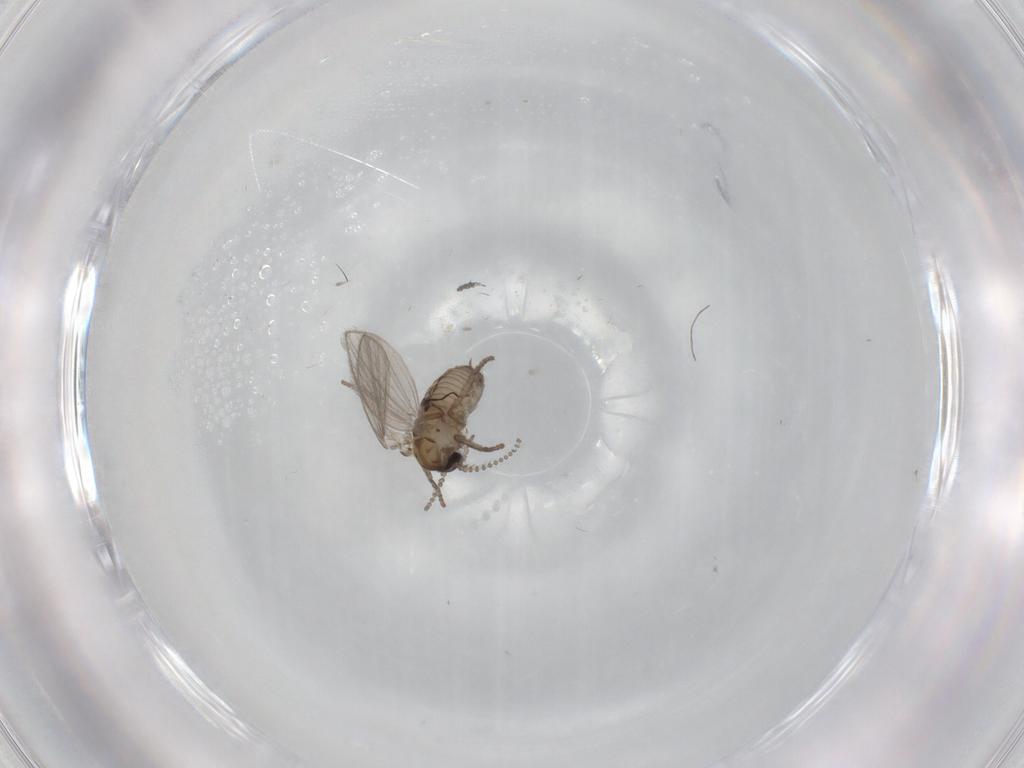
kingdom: Animalia
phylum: Arthropoda
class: Insecta
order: Diptera
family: Psychodidae
